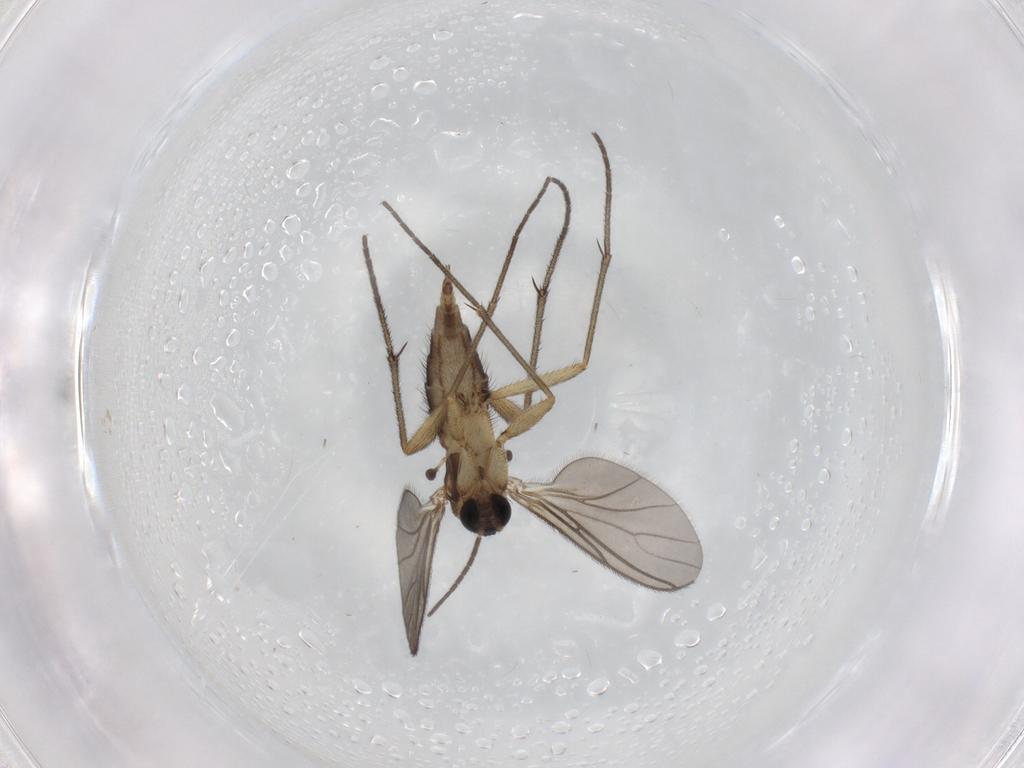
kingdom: Animalia
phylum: Arthropoda
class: Insecta
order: Diptera
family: Sciaridae
